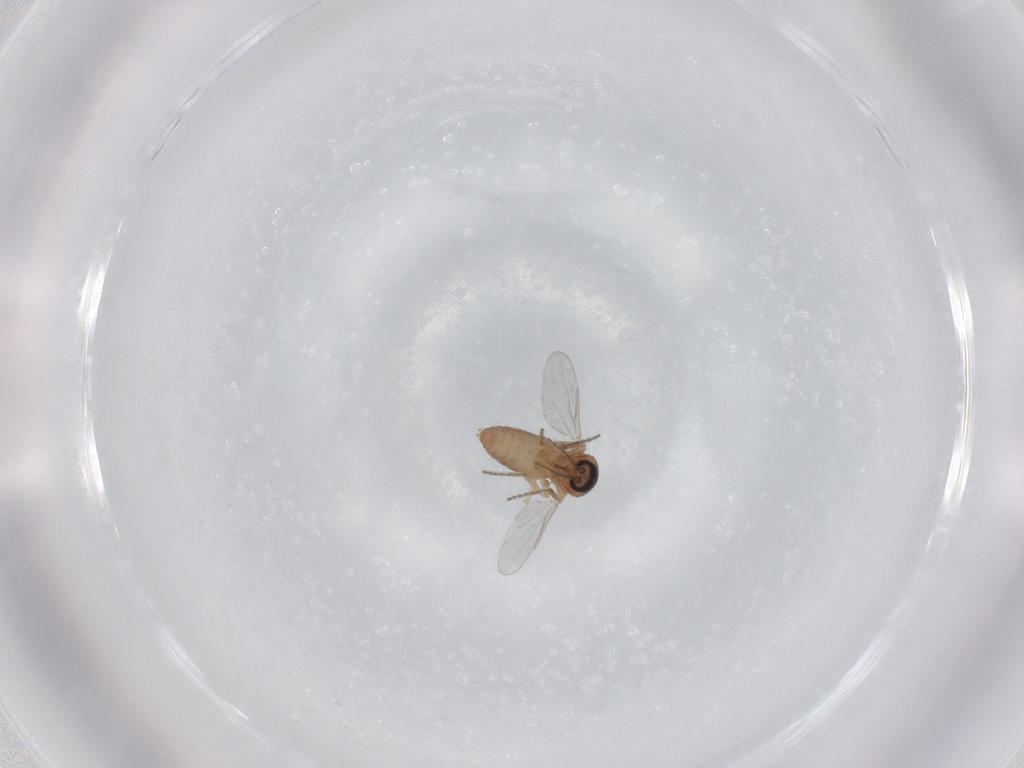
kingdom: Animalia
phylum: Arthropoda
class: Insecta
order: Diptera
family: Ceratopogonidae
